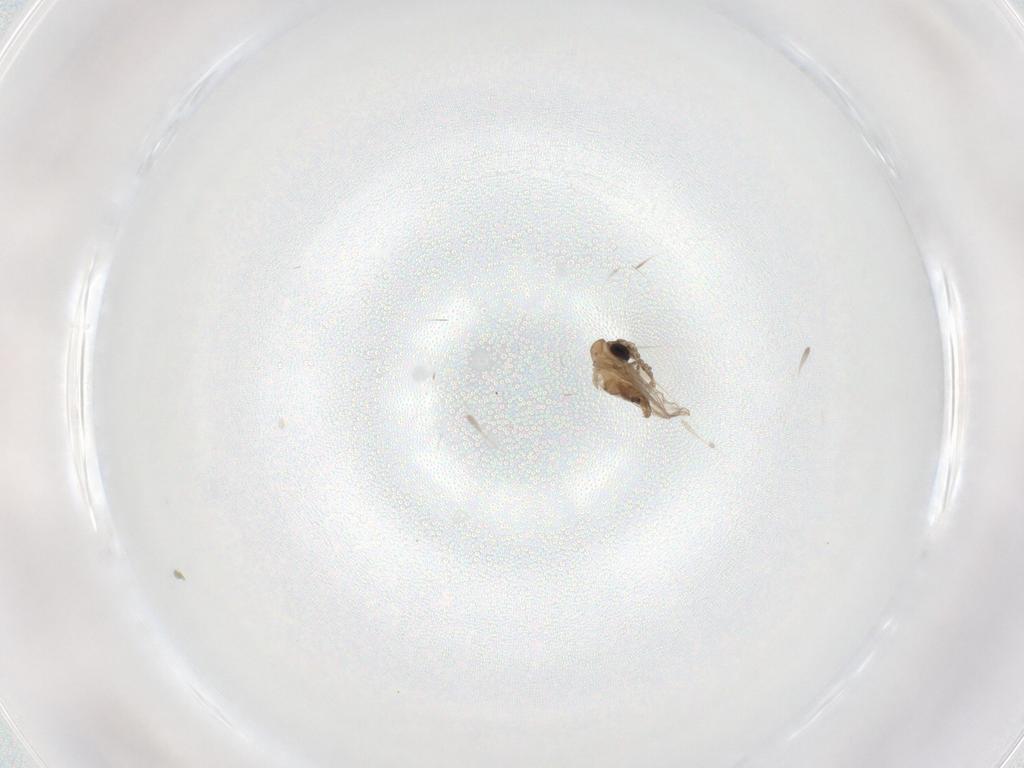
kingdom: Animalia
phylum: Arthropoda
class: Insecta
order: Diptera
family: Psychodidae
